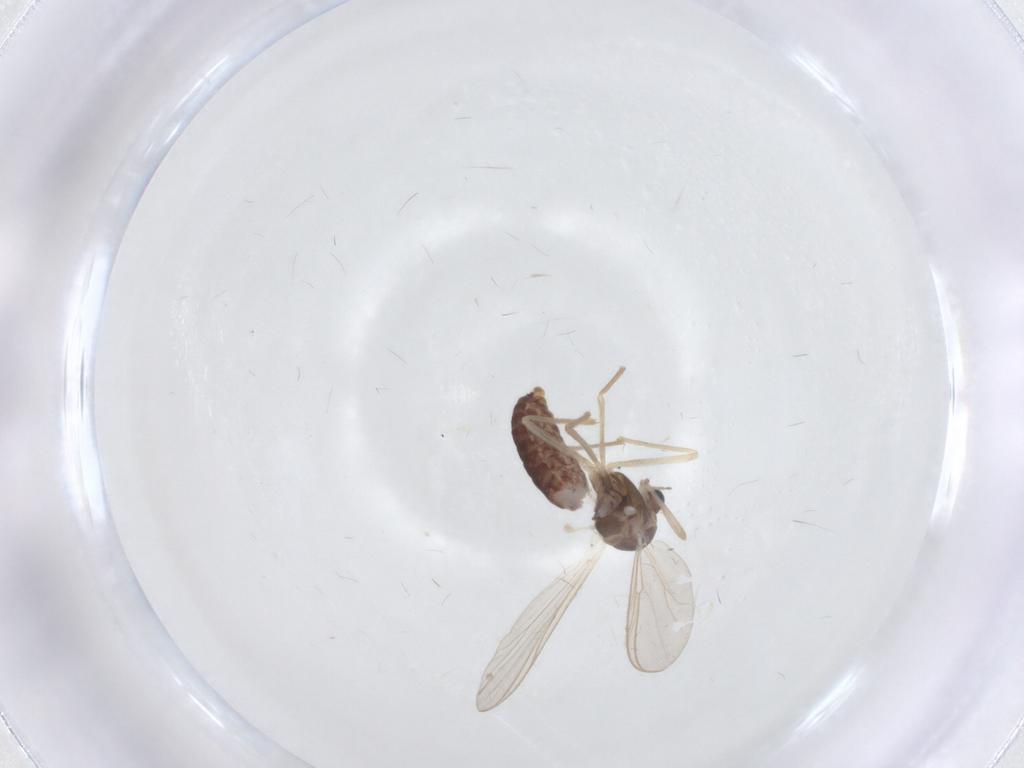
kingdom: Animalia
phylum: Arthropoda
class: Insecta
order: Diptera
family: Chironomidae
